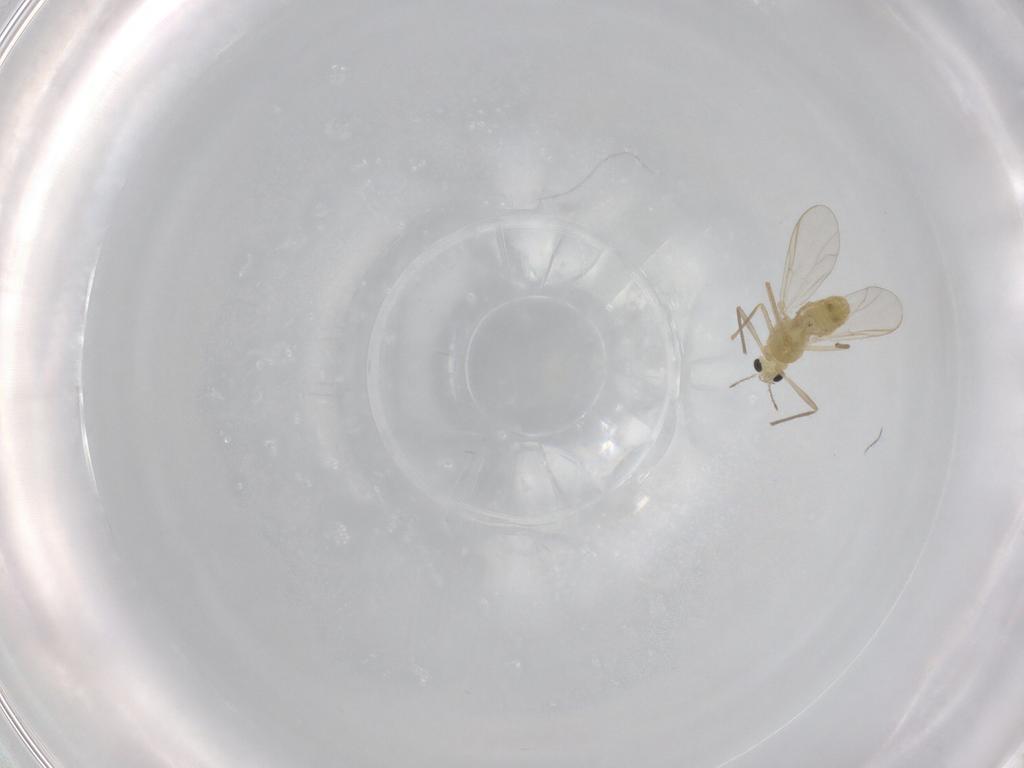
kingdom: Animalia
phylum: Arthropoda
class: Insecta
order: Diptera
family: Chironomidae
